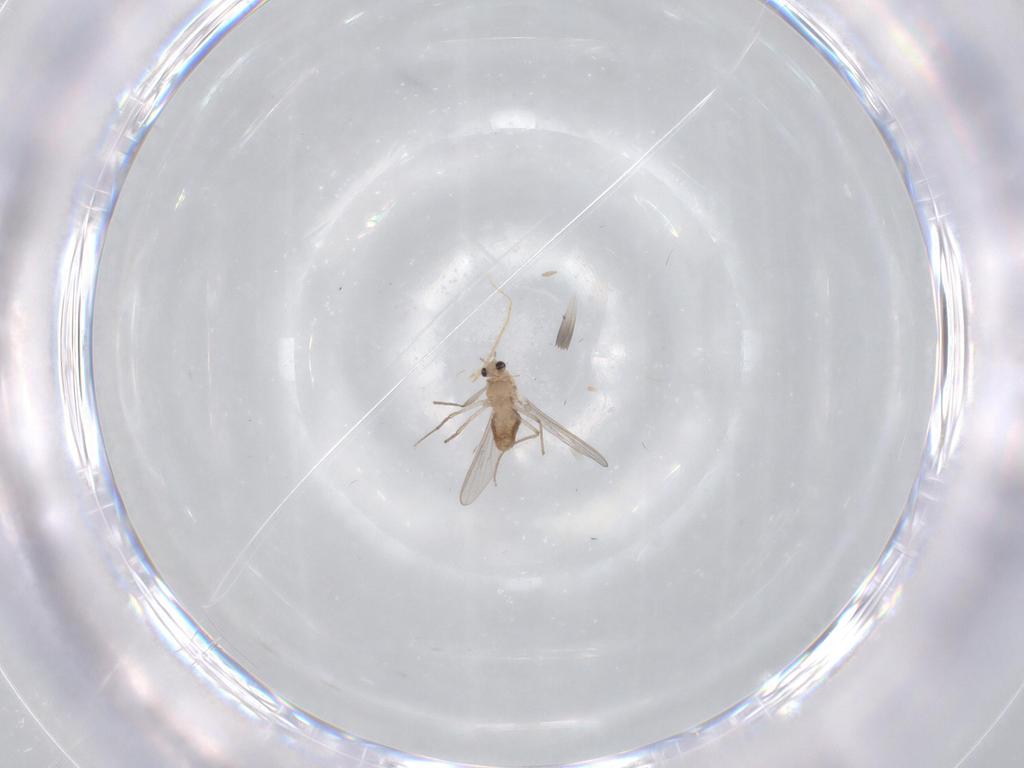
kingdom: Animalia
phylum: Arthropoda
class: Insecta
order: Diptera
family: Chironomidae
